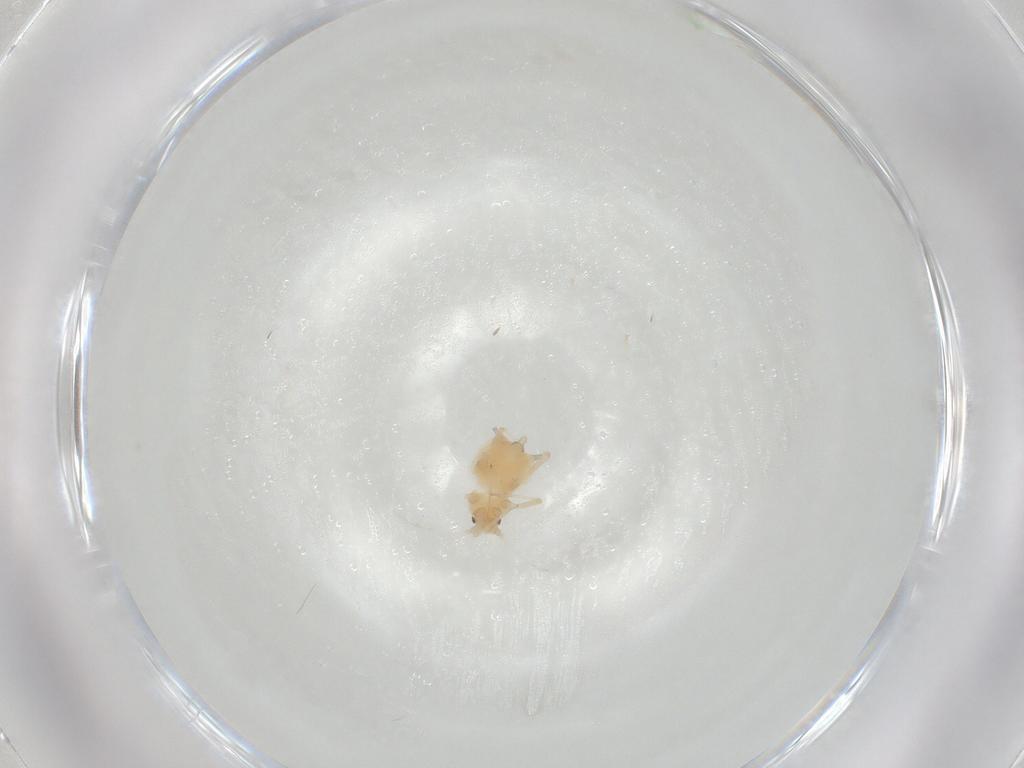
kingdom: Animalia
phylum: Arthropoda
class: Insecta
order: Hemiptera
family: Aphididae
